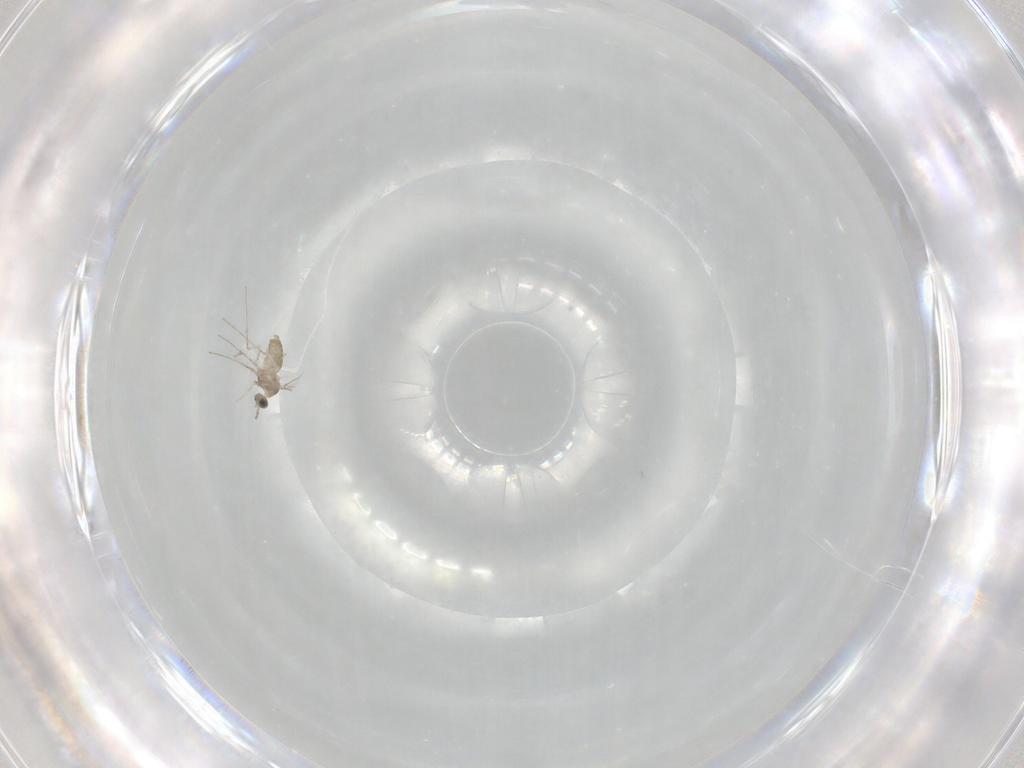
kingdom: Animalia
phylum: Arthropoda
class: Insecta
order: Diptera
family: Cecidomyiidae
